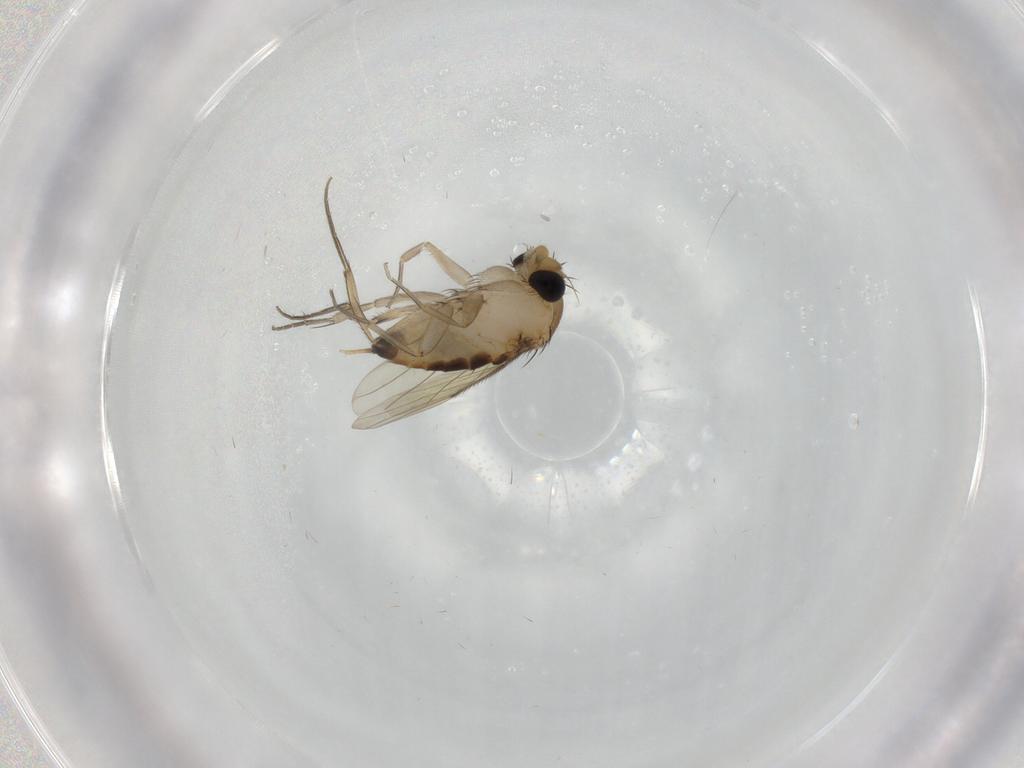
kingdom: Animalia
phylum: Arthropoda
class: Insecta
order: Diptera
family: Phoridae
